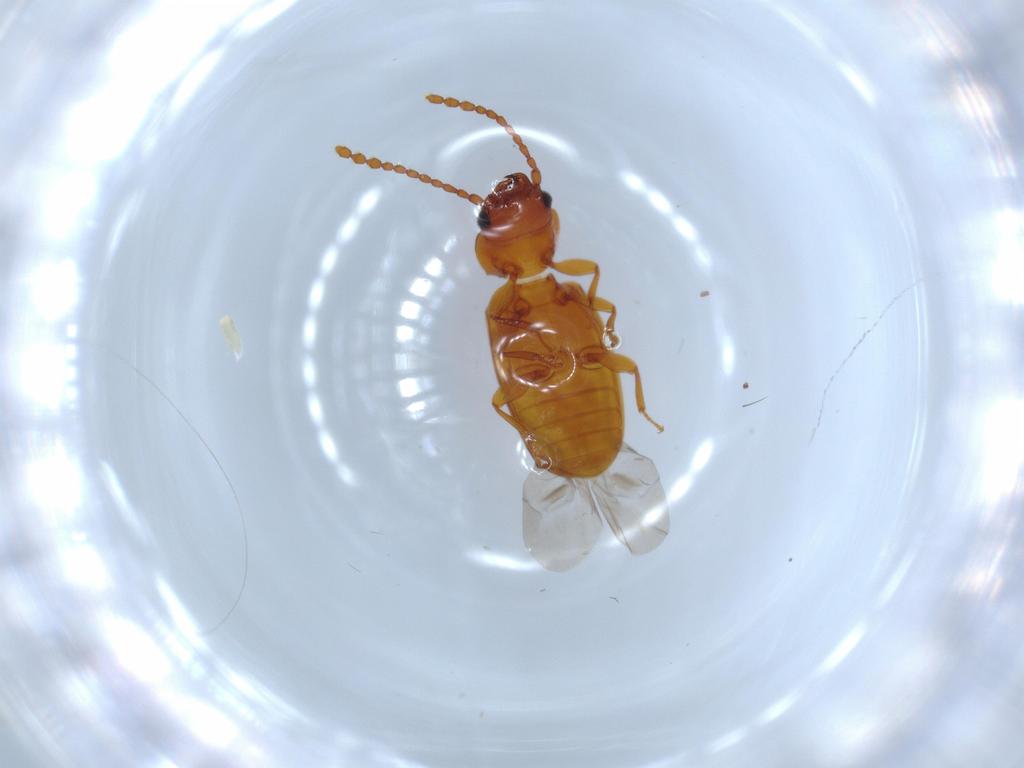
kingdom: Animalia
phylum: Arthropoda
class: Insecta
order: Coleoptera
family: Laemophloeidae
